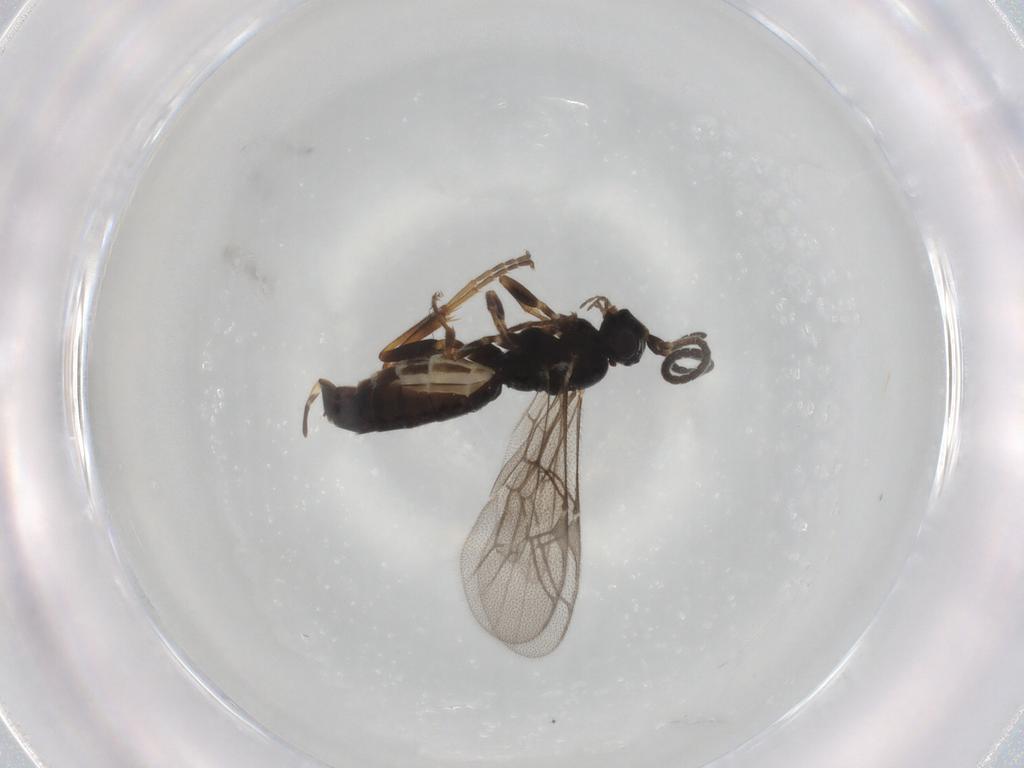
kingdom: Animalia
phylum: Arthropoda
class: Insecta
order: Hymenoptera
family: Ichneumonidae
